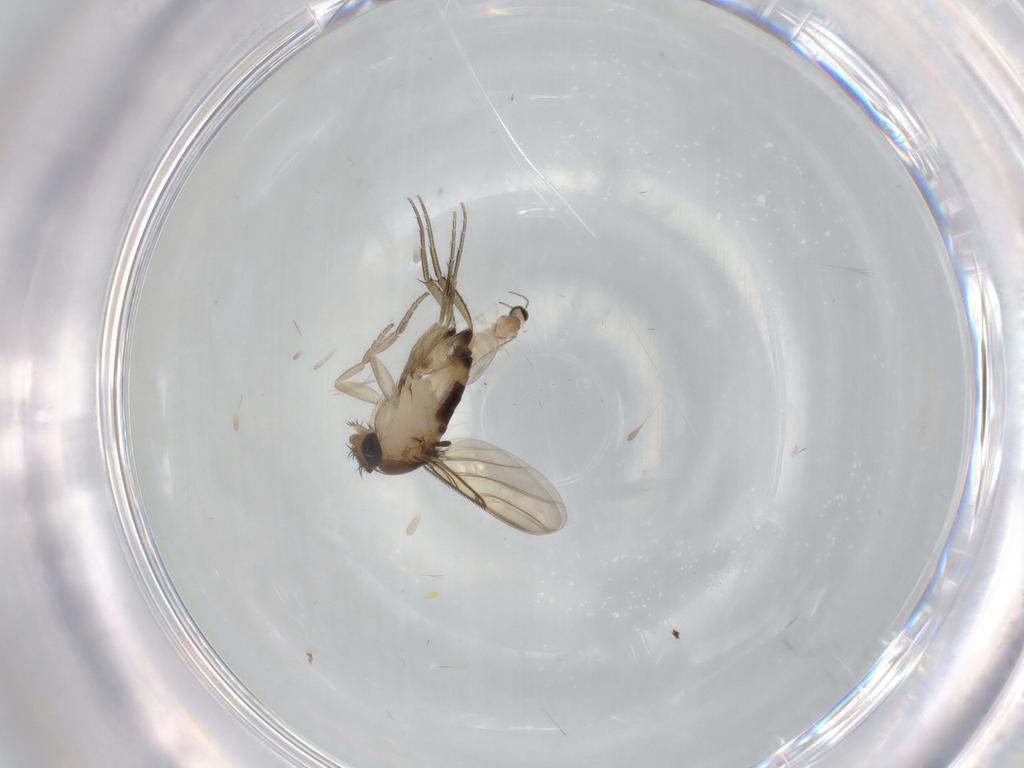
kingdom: Animalia
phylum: Arthropoda
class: Insecta
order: Diptera
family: Phoridae
